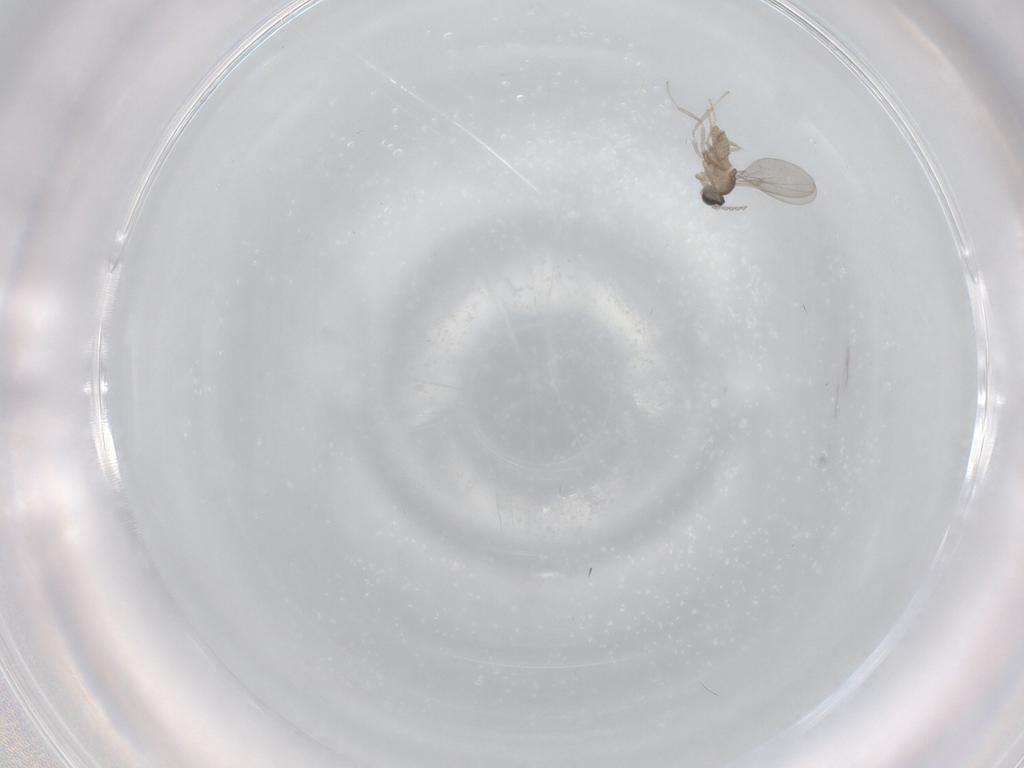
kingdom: Animalia
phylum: Arthropoda
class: Insecta
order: Diptera
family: Cecidomyiidae
